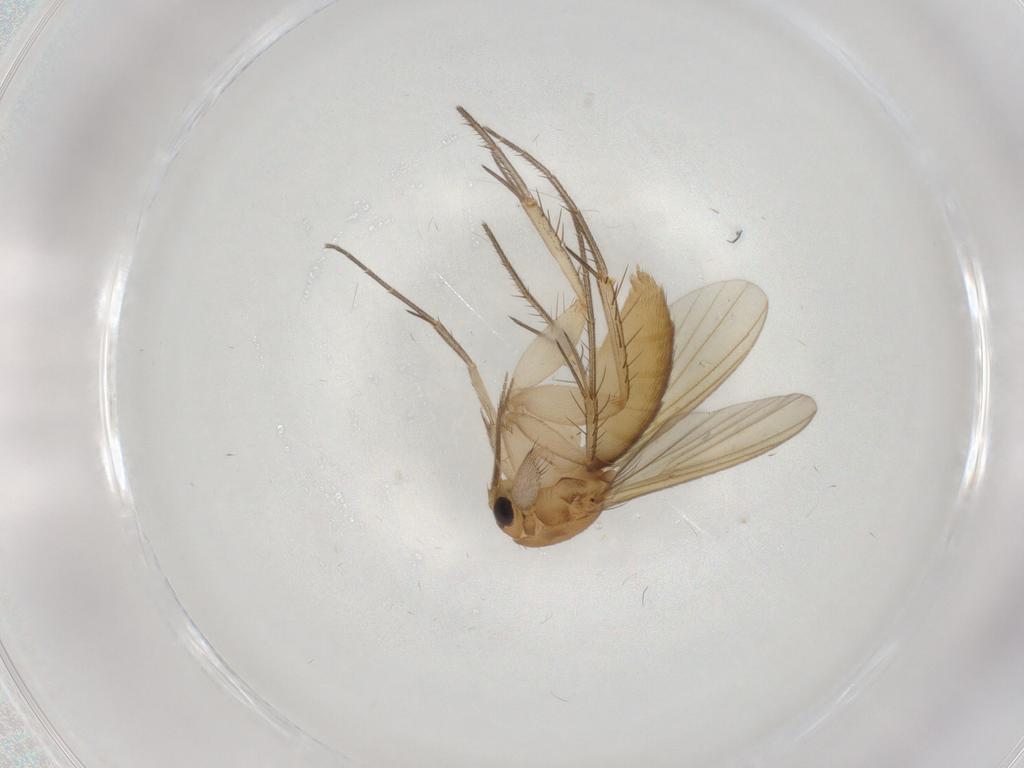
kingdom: Animalia
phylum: Arthropoda
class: Insecta
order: Diptera
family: Mycetophilidae
